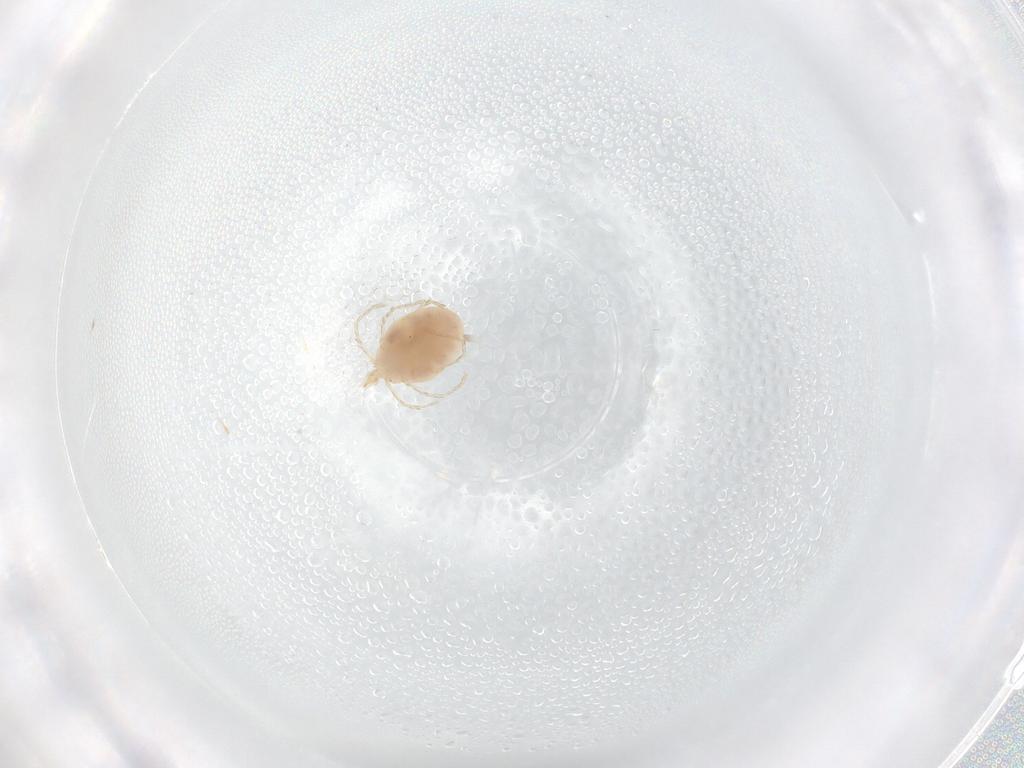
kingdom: Animalia
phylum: Arthropoda
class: Arachnida
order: Trombidiformes
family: Erythraeidae
